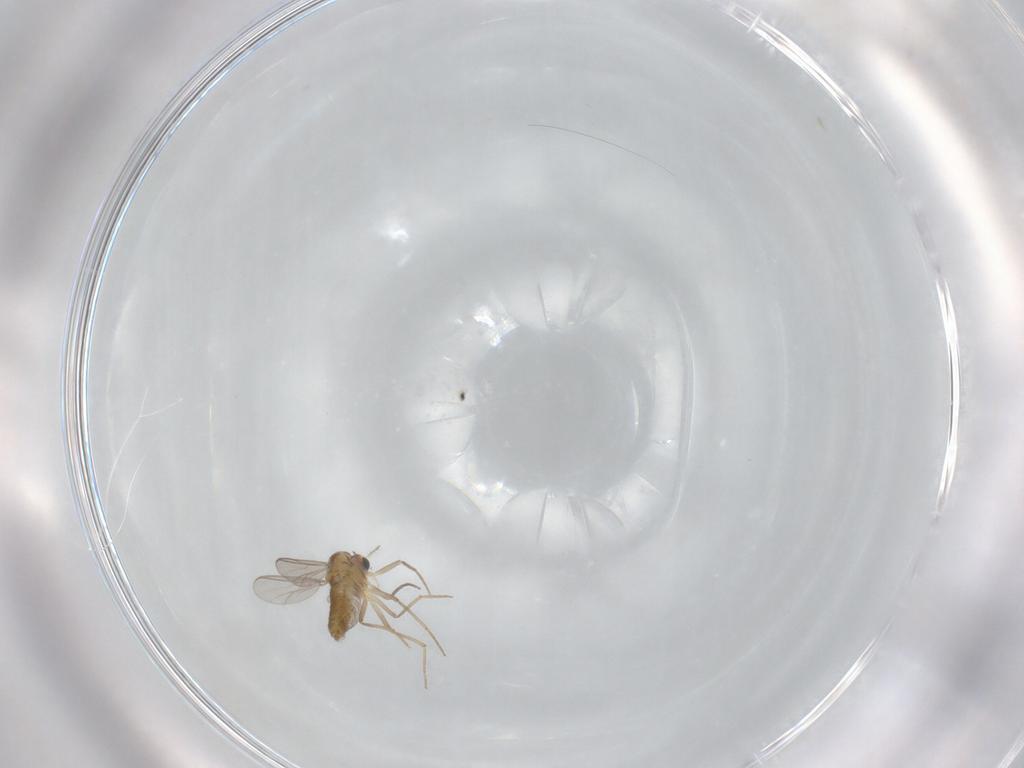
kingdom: Animalia
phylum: Arthropoda
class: Insecta
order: Diptera
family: Chironomidae
